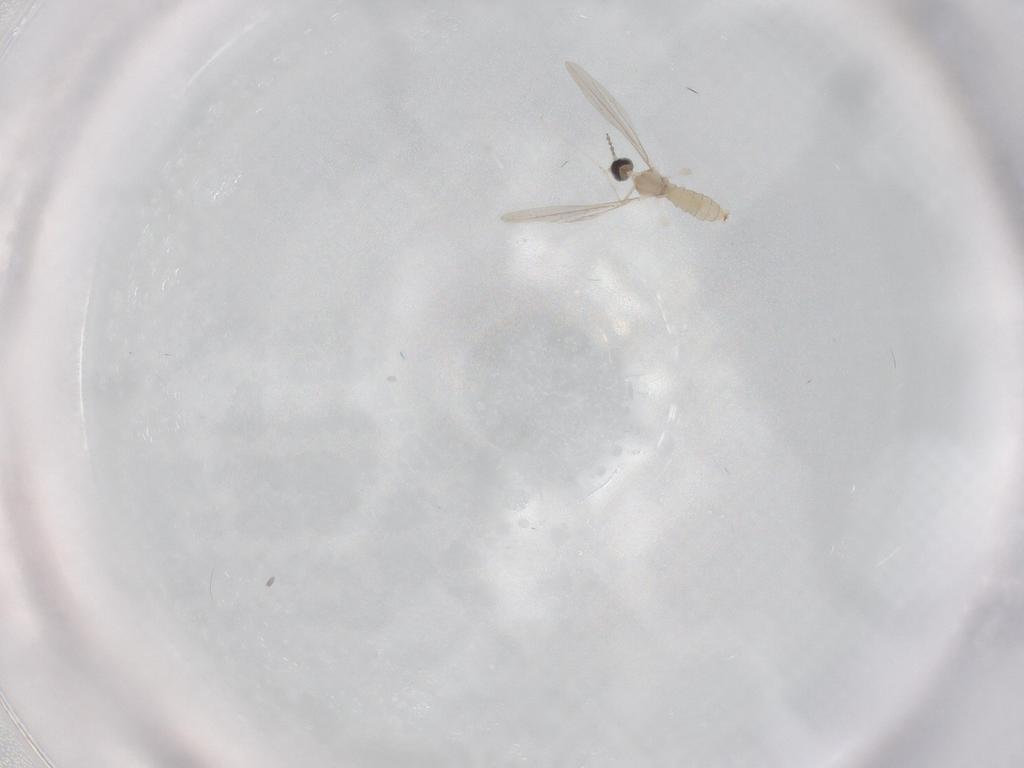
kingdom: Animalia
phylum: Arthropoda
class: Insecta
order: Diptera
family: Cecidomyiidae
